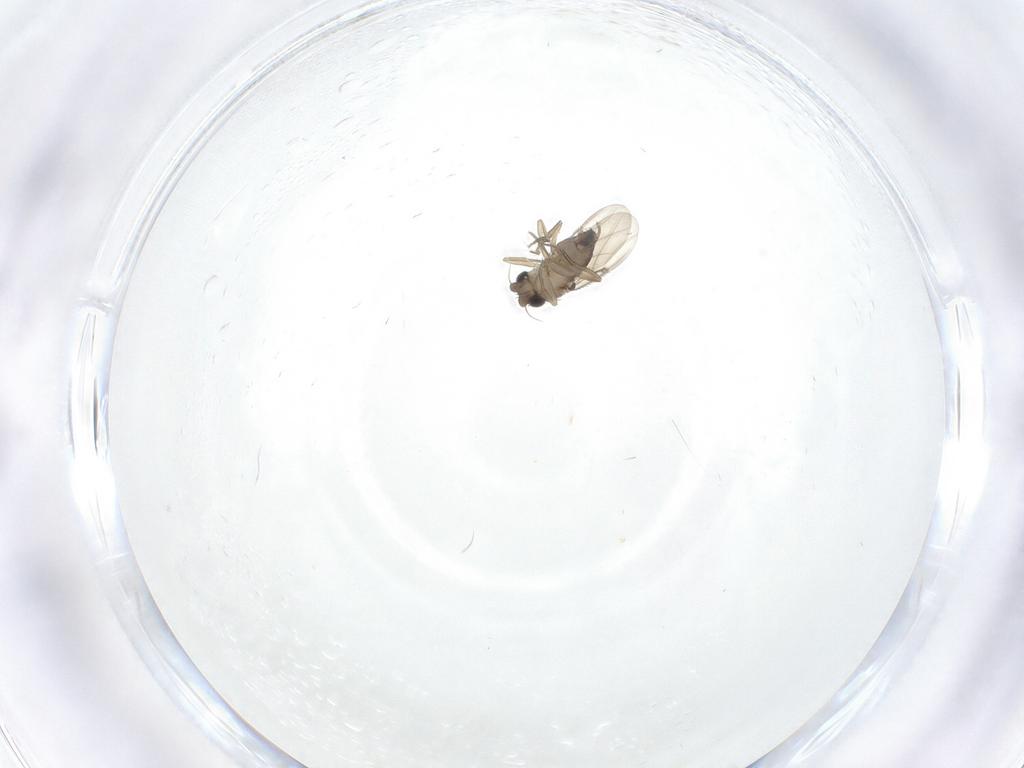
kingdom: Animalia
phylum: Arthropoda
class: Insecta
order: Diptera
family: Phoridae
